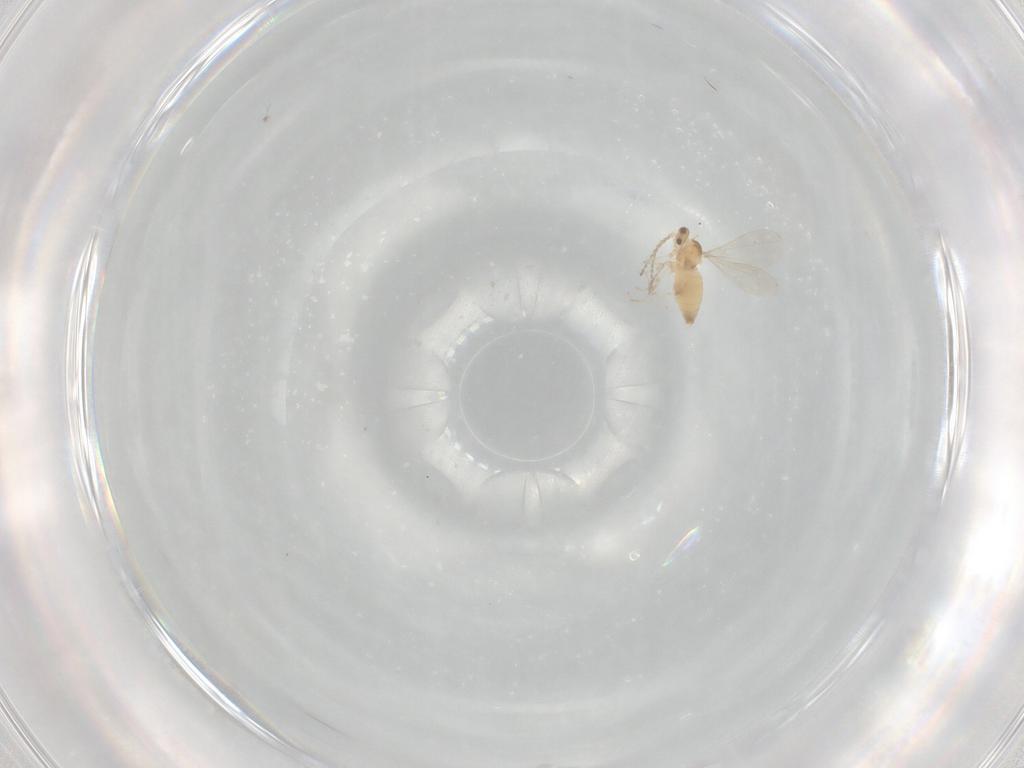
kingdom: Animalia
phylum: Arthropoda
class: Insecta
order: Diptera
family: Cecidomyiidae
